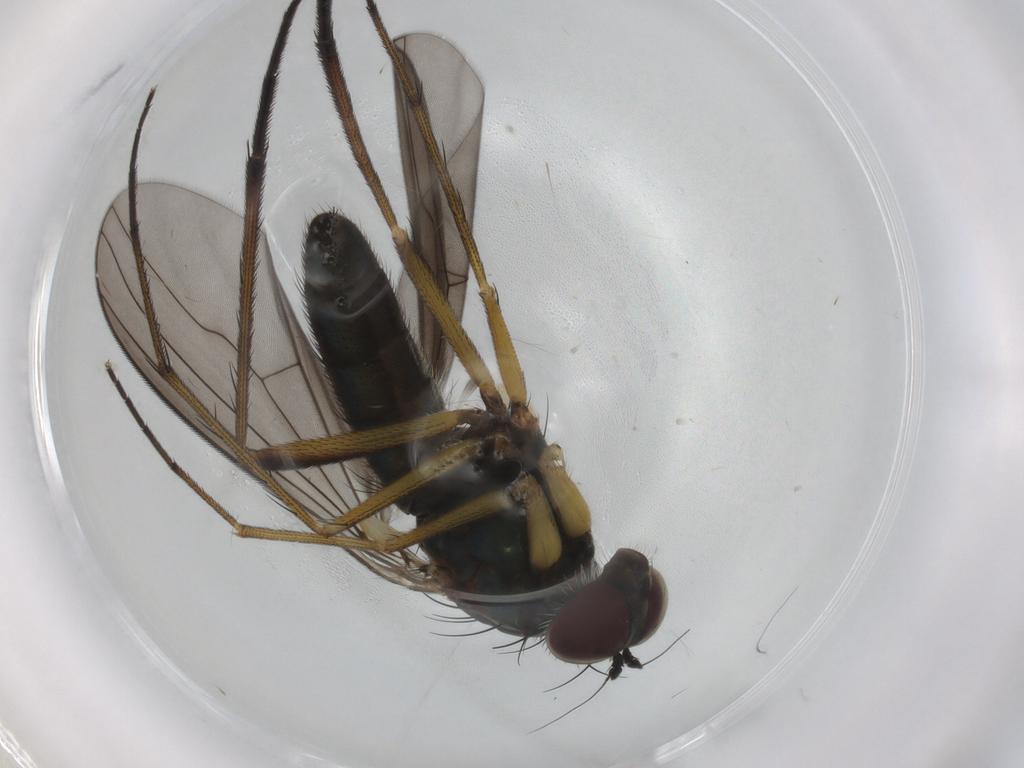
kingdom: Animalia
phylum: Arthropoda
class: Insecta
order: Diptera
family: Dolichopodidae
